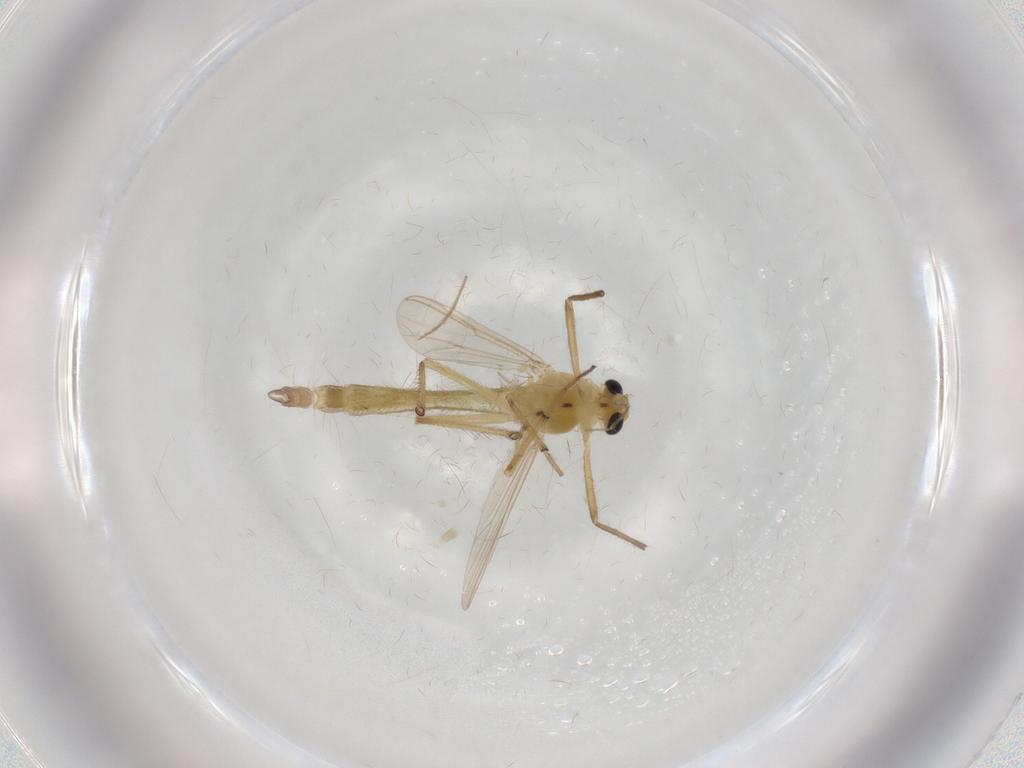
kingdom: Animalia
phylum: Arthropoda
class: Insecta
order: Diptera
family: Chironomidae
